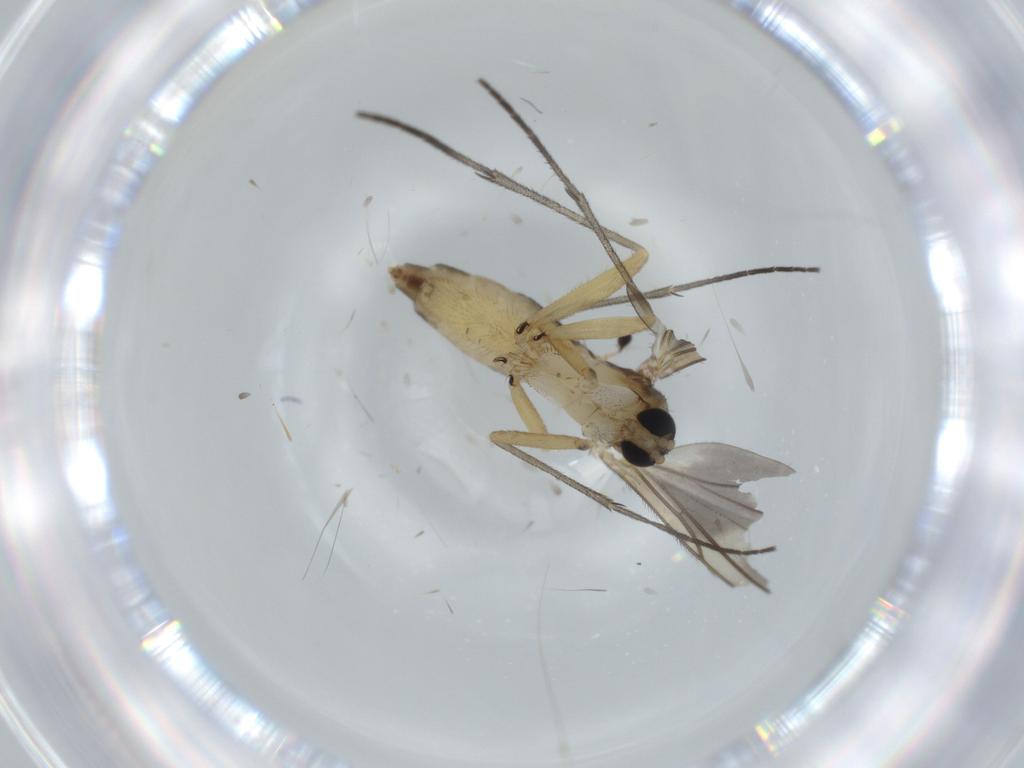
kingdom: Animalia
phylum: Arthropoda
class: Insecta
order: Diptera
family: Sciaridae
